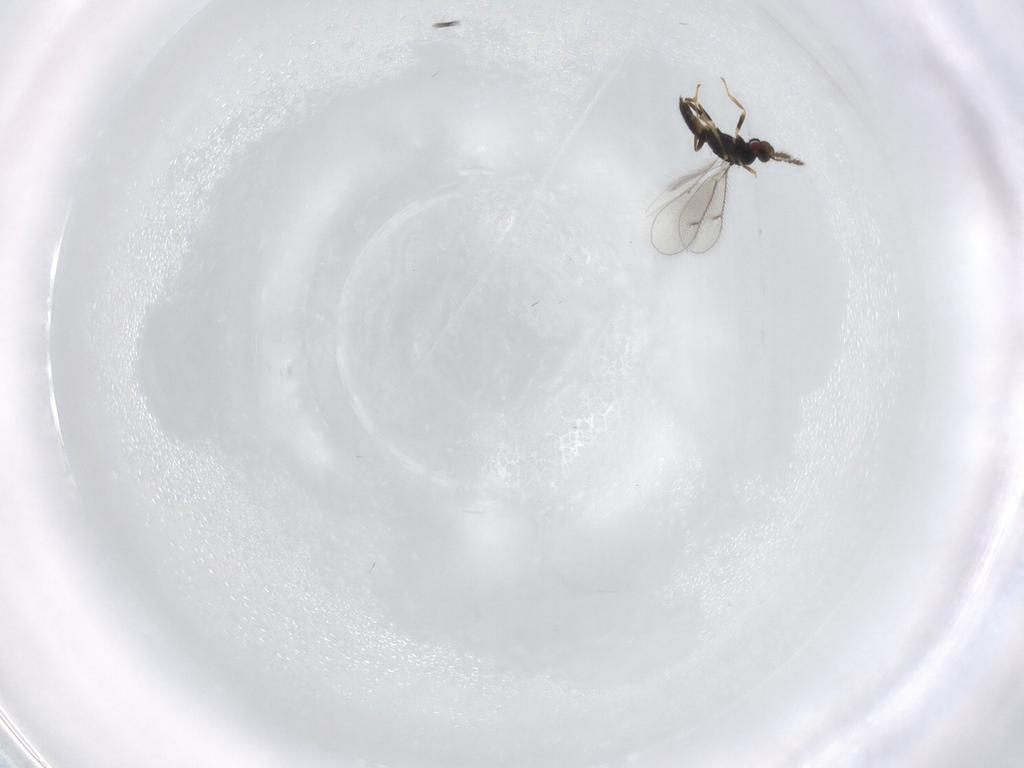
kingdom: Animalia
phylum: Arthropoda
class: Insecta
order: Hymenoptera
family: Eulophidae
